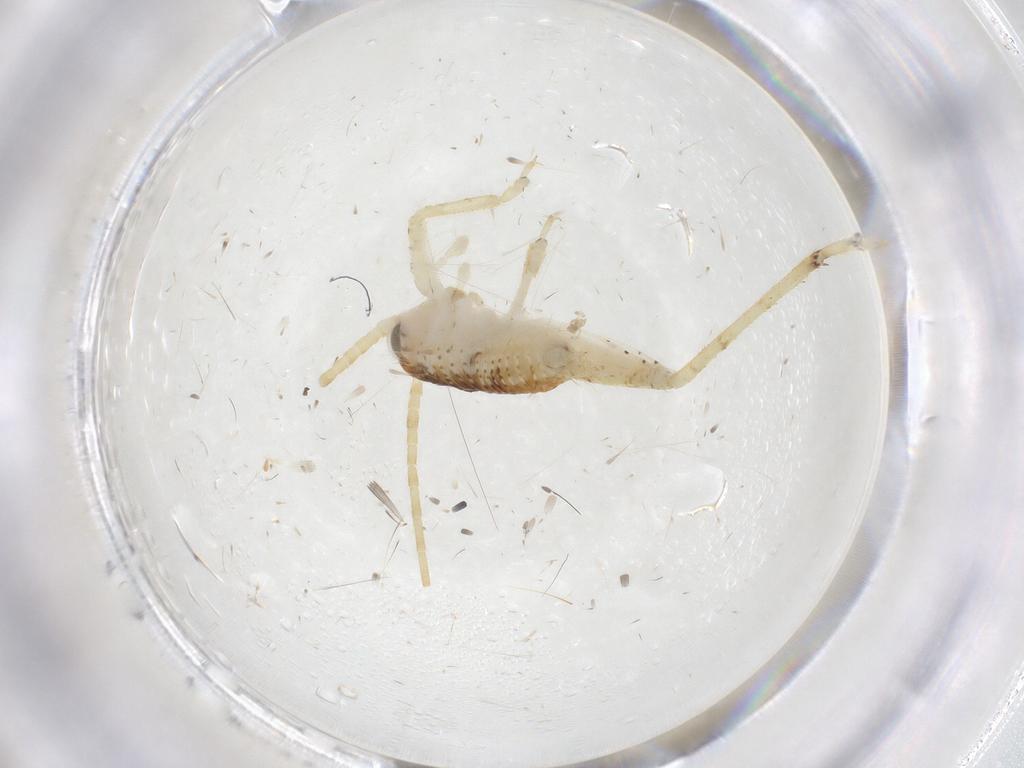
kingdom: Animalia
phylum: Arthropoda
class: Insecta
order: Orthoptera
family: Gryllidae
